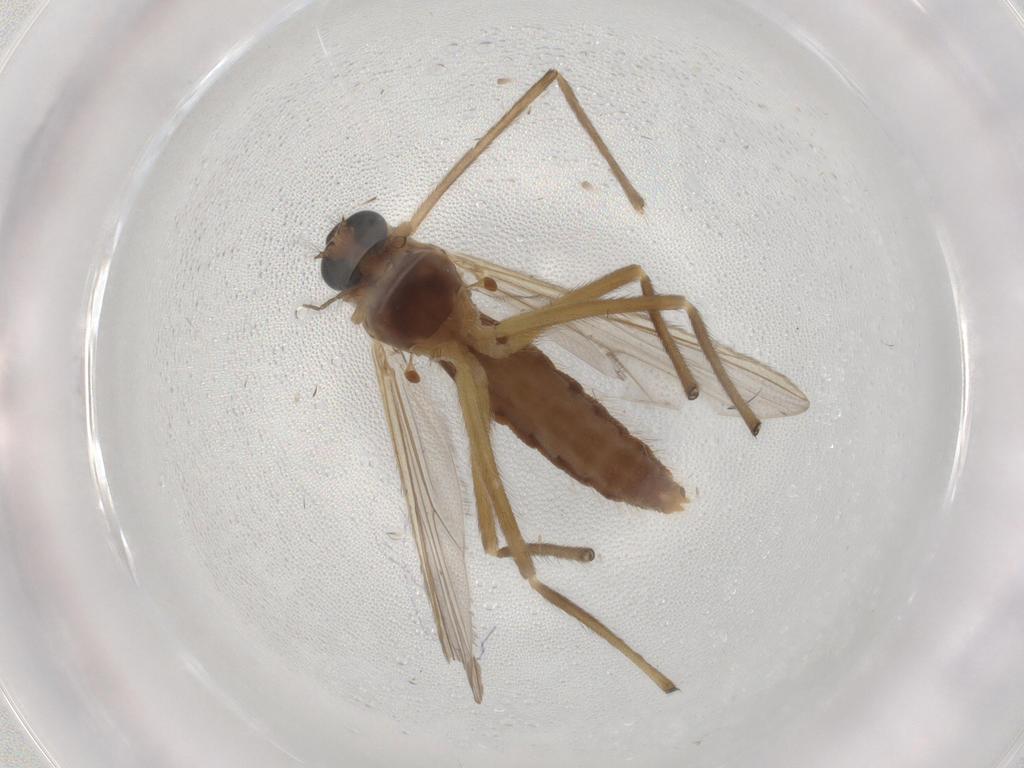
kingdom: Animalia
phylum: Arthropoda
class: Insecta
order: Diptera
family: Chironomidae
